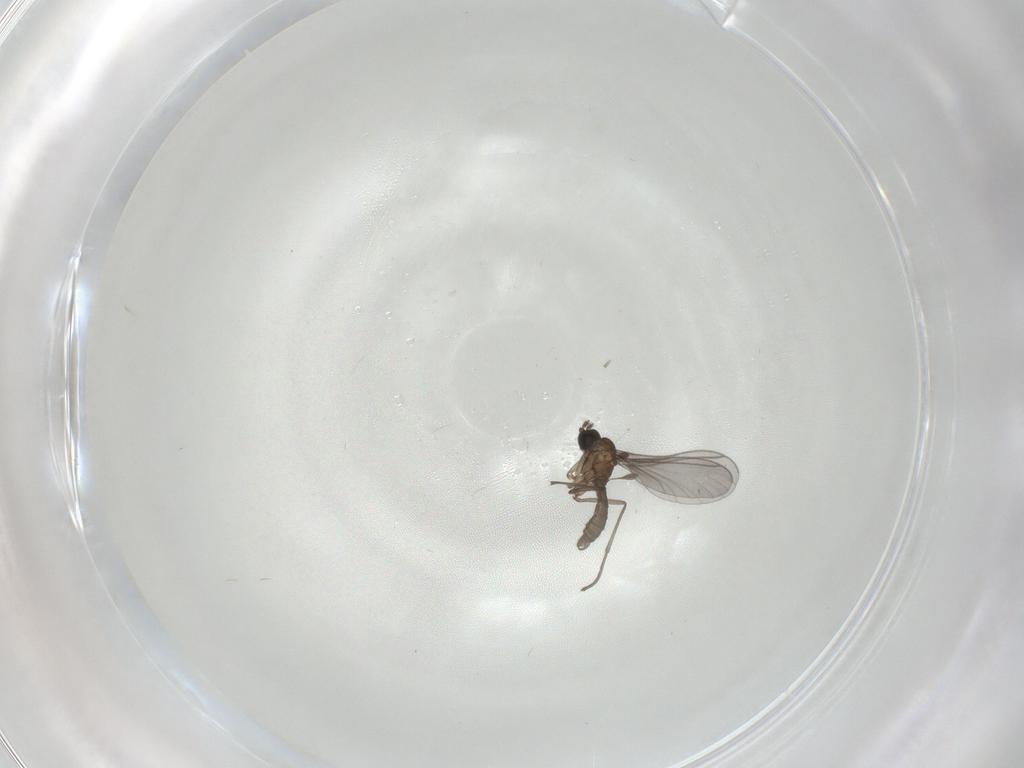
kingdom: Animalia
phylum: Arthropoda
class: Insecta
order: Diptera
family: Sciaridae
